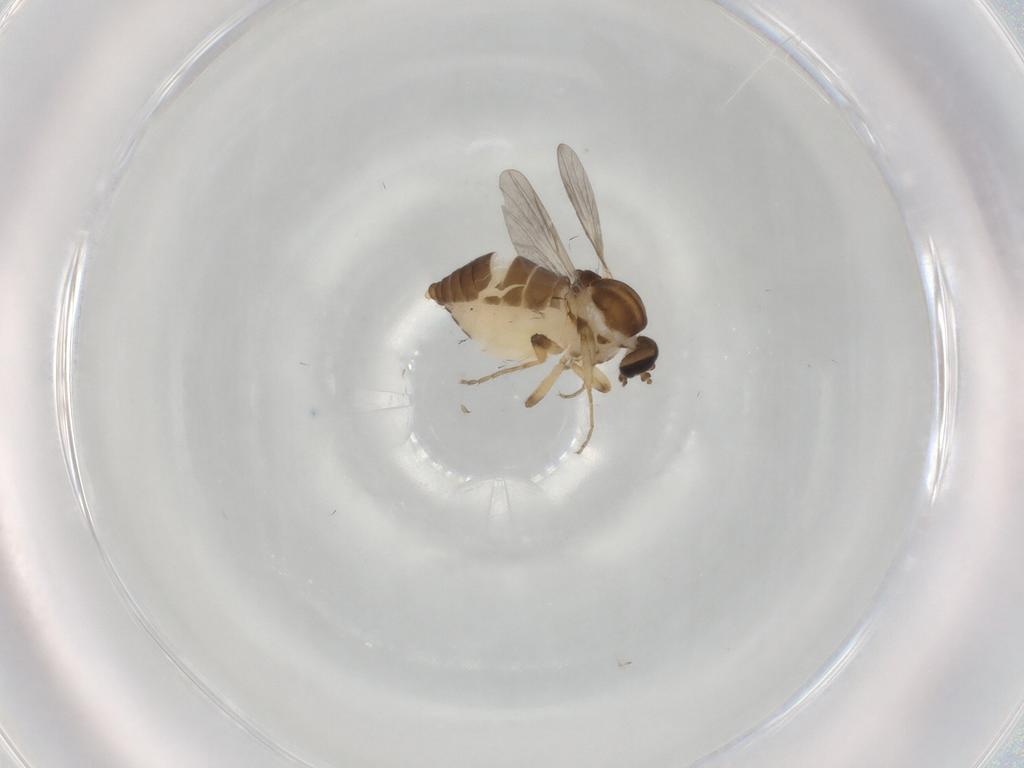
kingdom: Animalia
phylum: Arthropoda
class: Insecta
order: Diptera
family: Ceratopogonidae
